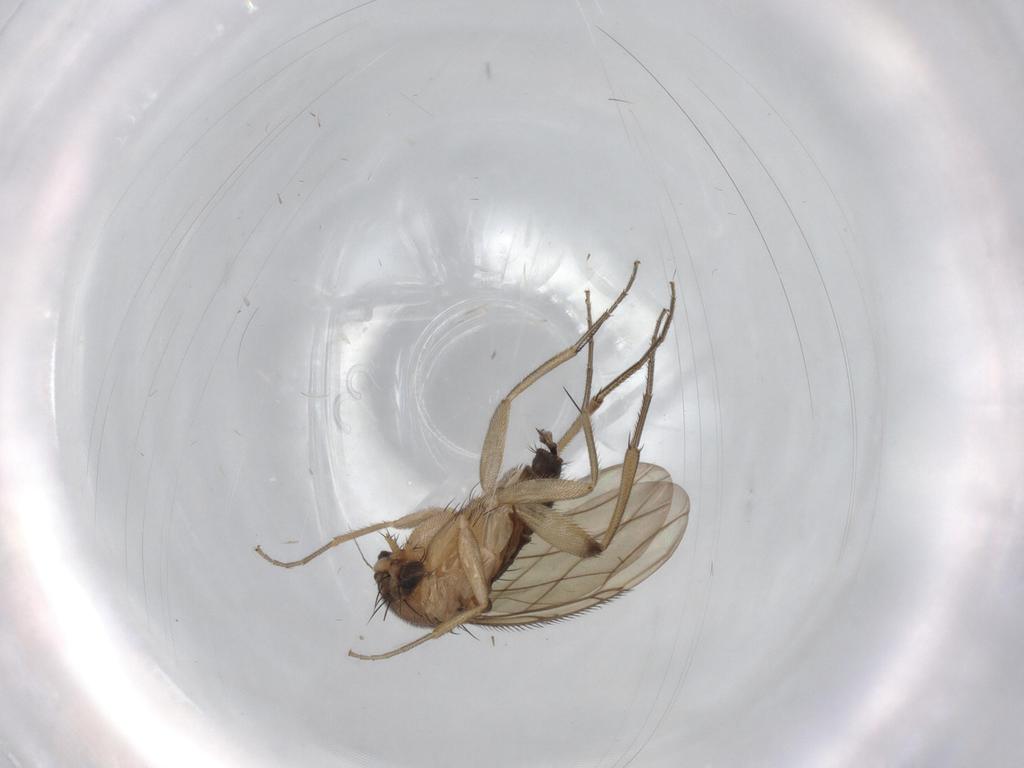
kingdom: Animalia
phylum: Arthropoda
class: Insecta
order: Diptera
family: Phoridae
